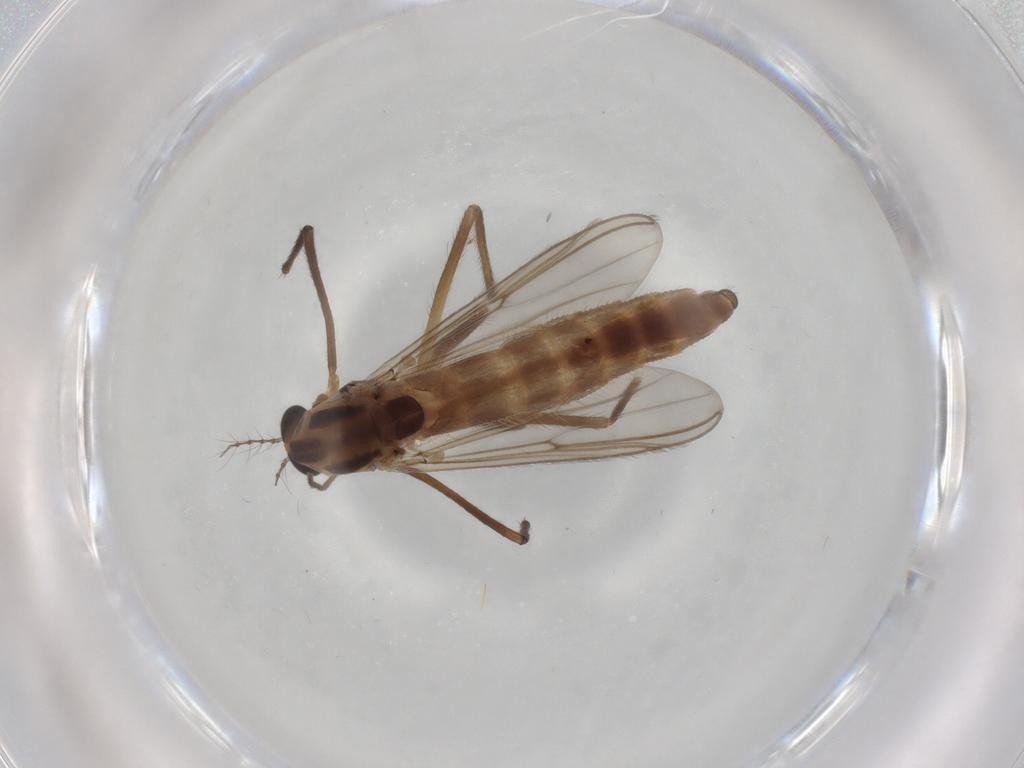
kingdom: Animalia
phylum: Arthropoda
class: Insecta
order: Diptera
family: Chironomidae
